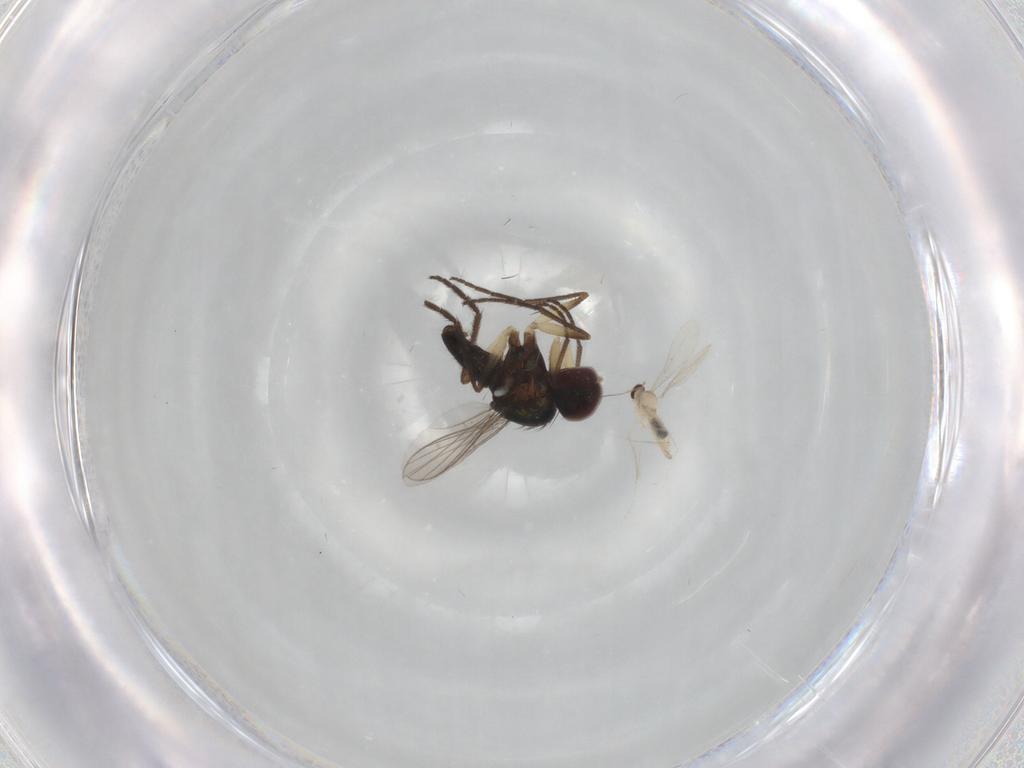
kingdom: Animalia
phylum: Arthropoda
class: Insecta
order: Diptera
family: Dolichopodidae
